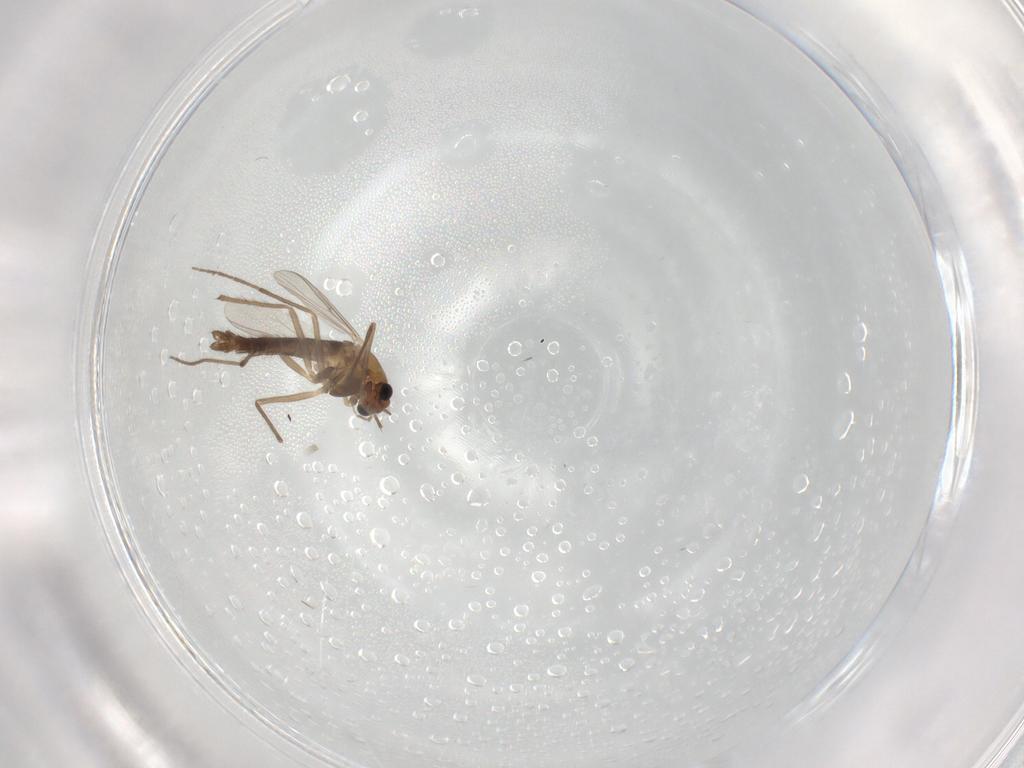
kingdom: Animalia
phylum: Arthropoda
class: Insecta
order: Diptera
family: Chironomidae
